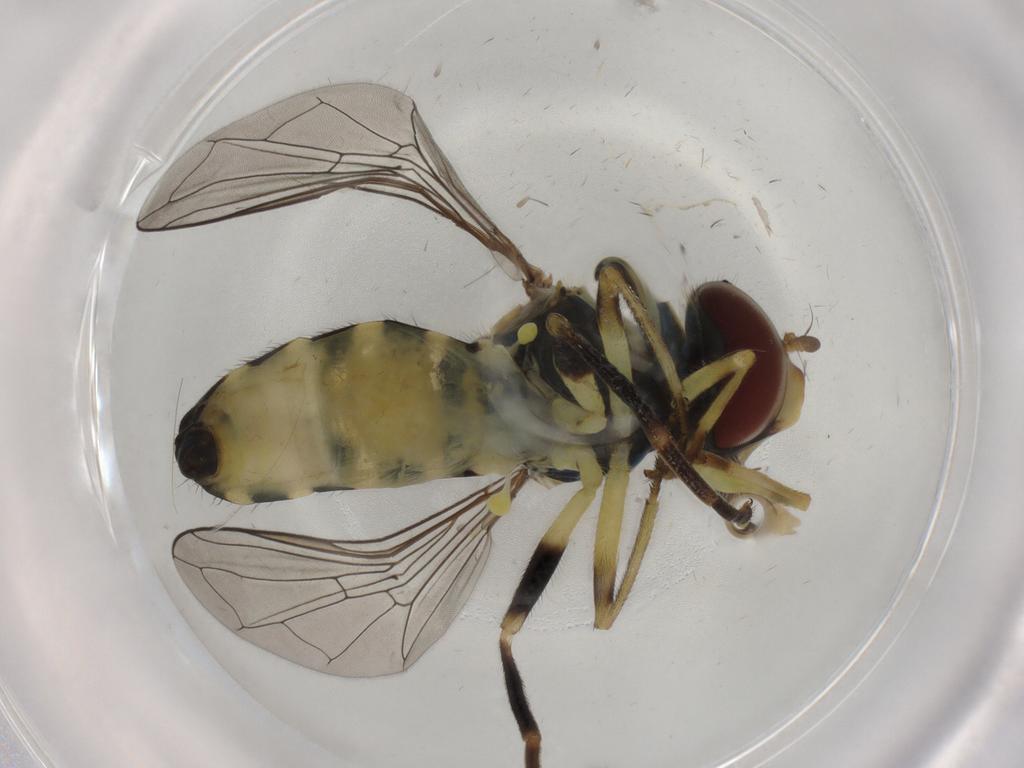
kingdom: Animalia
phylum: Arthropoda
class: Insecta
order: Diptera
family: Syrphidae
